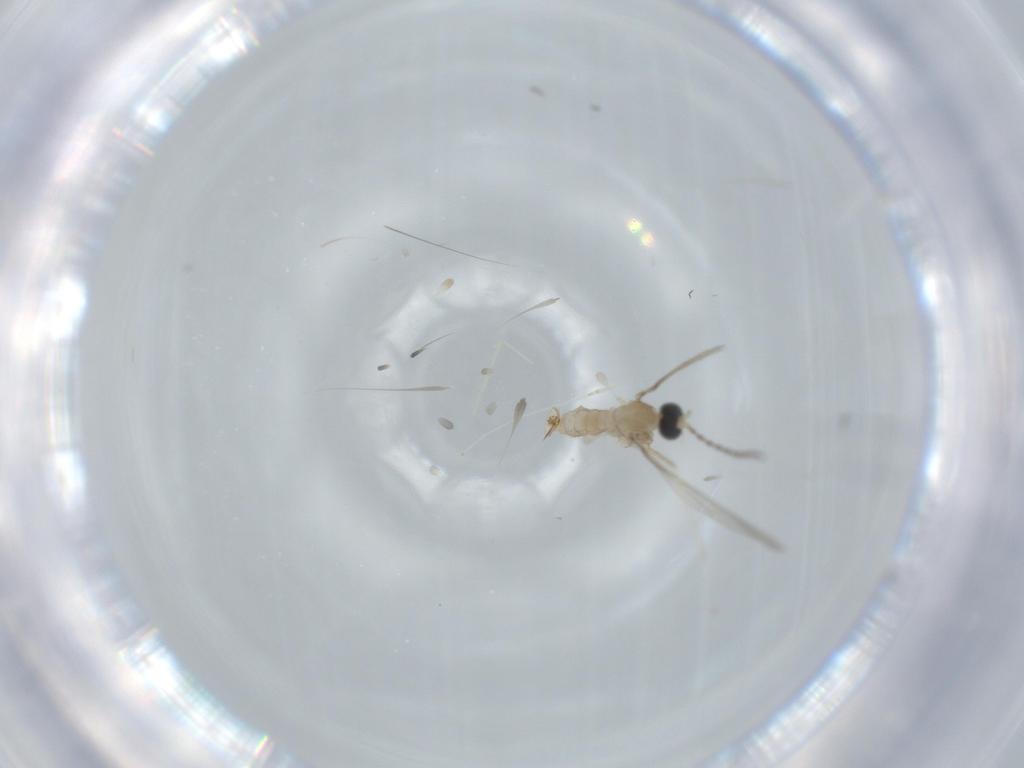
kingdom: Animalia
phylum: Arthropoda
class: Insecta
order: Diptera
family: Cecidomyiidae
